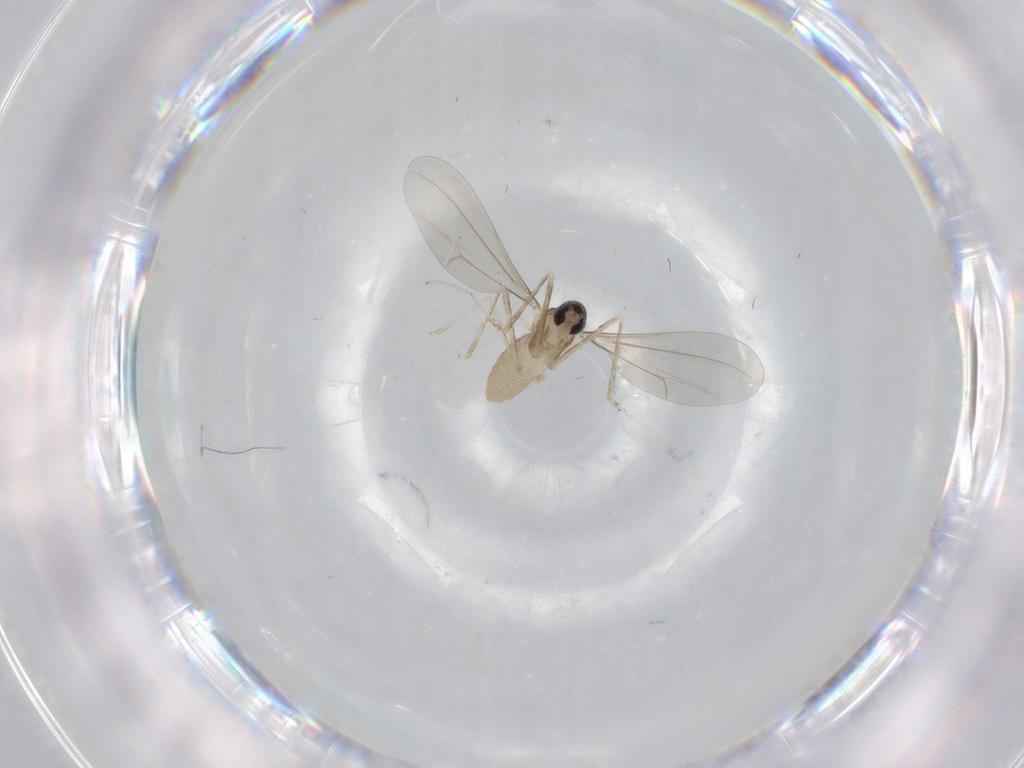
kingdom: Animalia
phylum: Arthropoda
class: Insecta
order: Diptera
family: Cecidomyiidae
